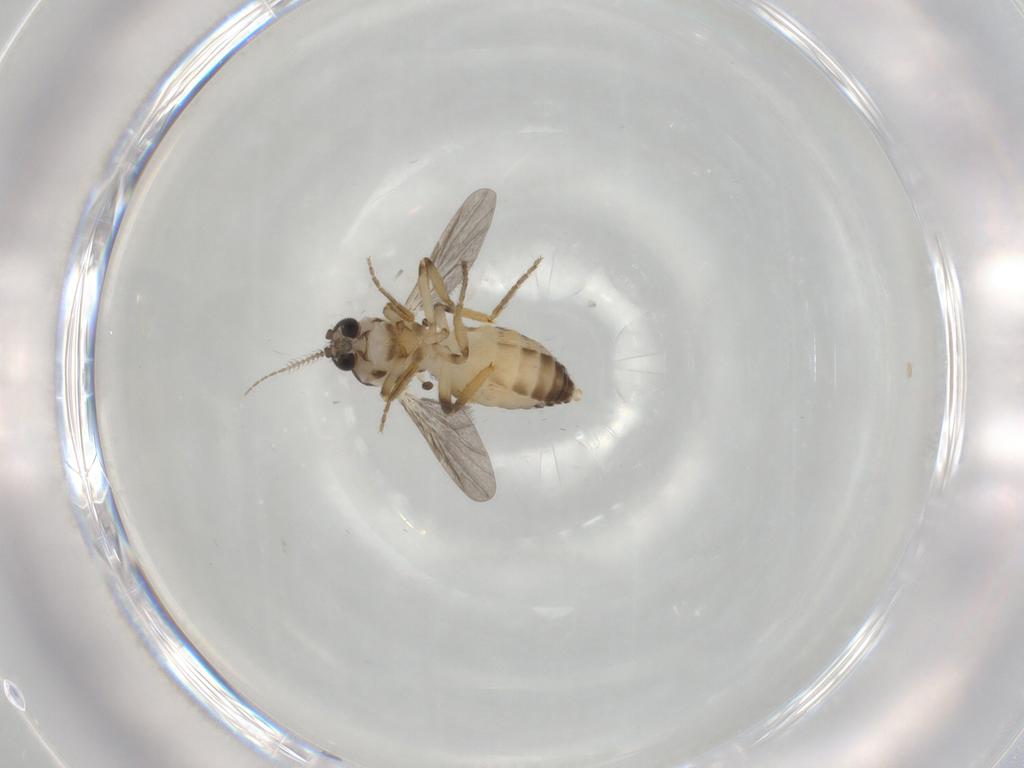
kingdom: Animalia
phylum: Arthropoda
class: Insecta
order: Diptera
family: Ceratopogonidae
